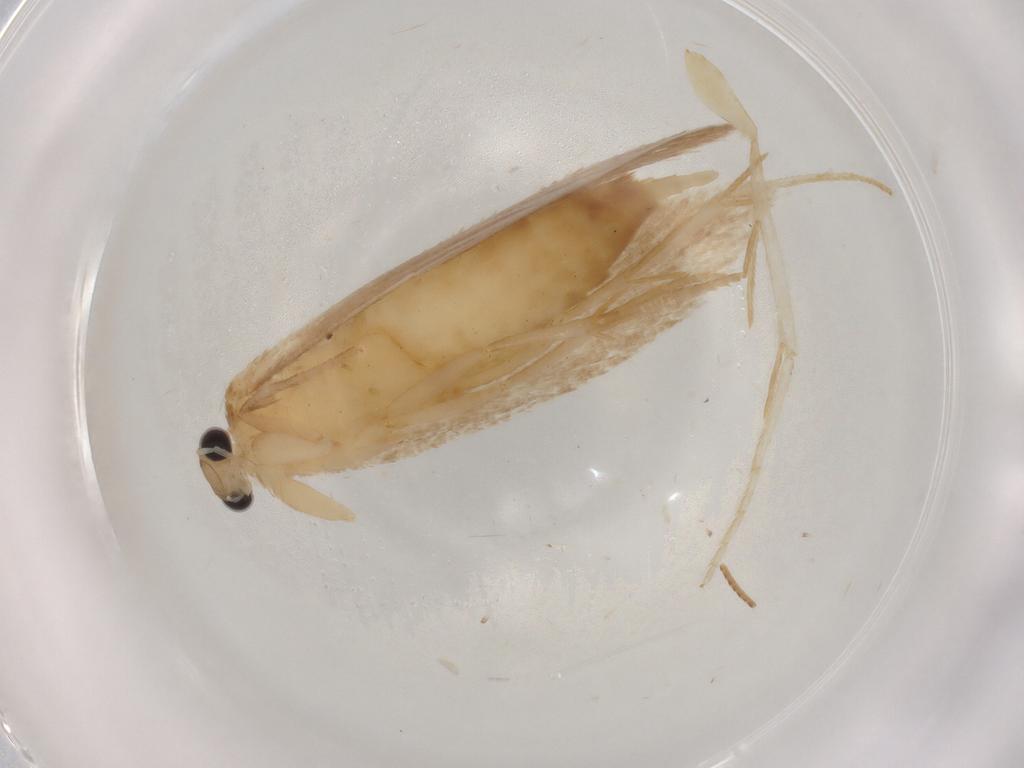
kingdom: Animalia
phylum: Arthropoda
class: Insecta
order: Lepidoptera
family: Tineidae
